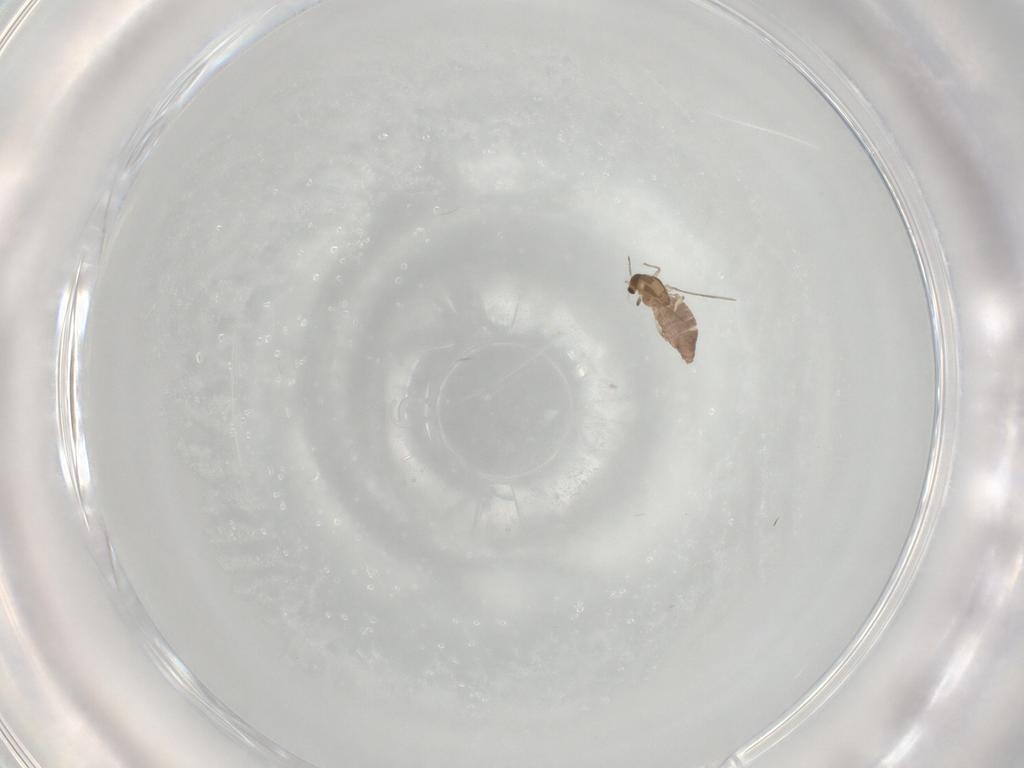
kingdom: Animalia
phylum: Arthropoda
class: Insecta
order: Diptera
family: Chironomidae
